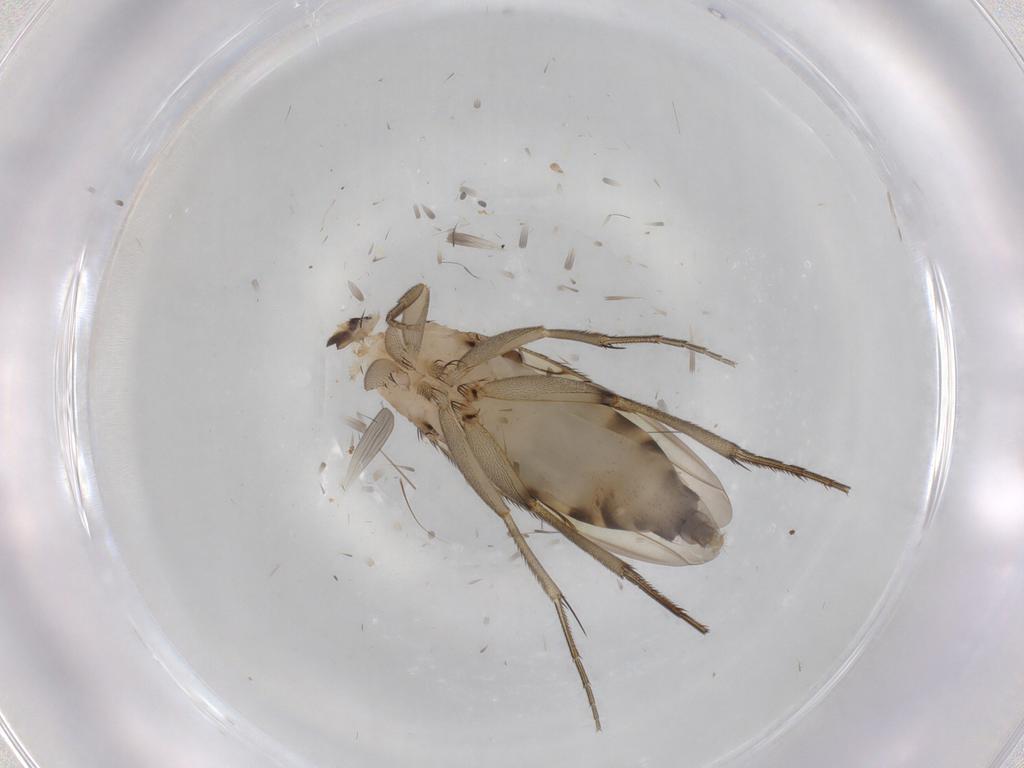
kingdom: Animalia
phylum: Arthropoda
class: Insecta
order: Diptera
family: Limoniidae
